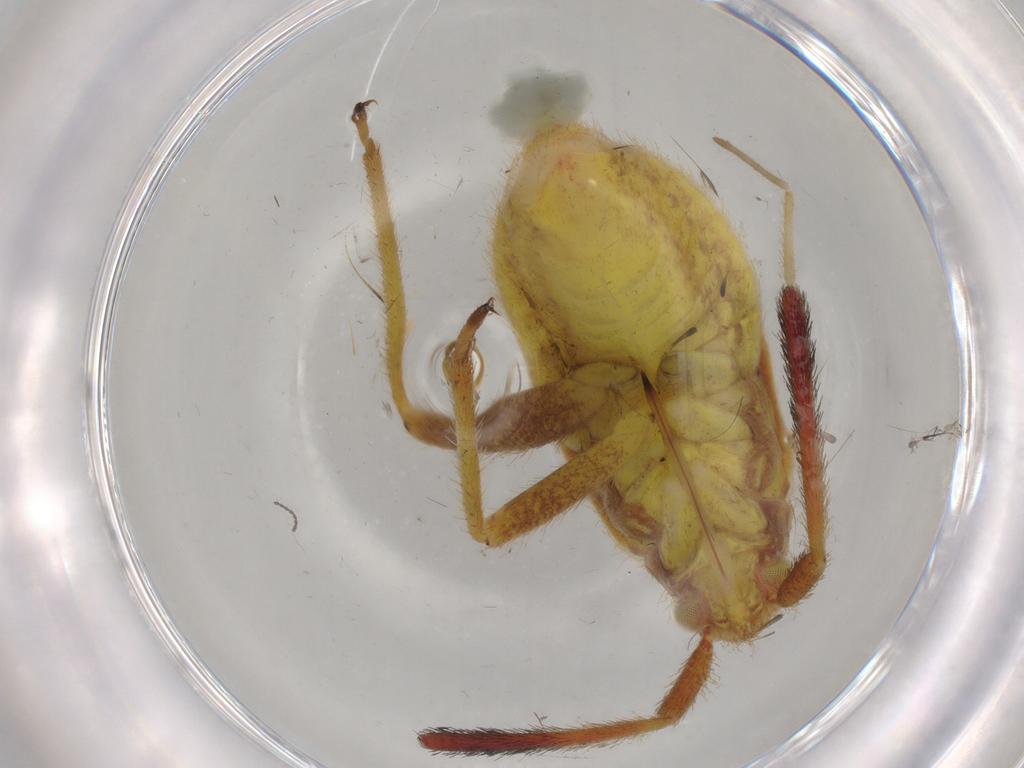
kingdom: Animalia
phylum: Arthropoda
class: Insecta
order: Hemiptera
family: Miridae
